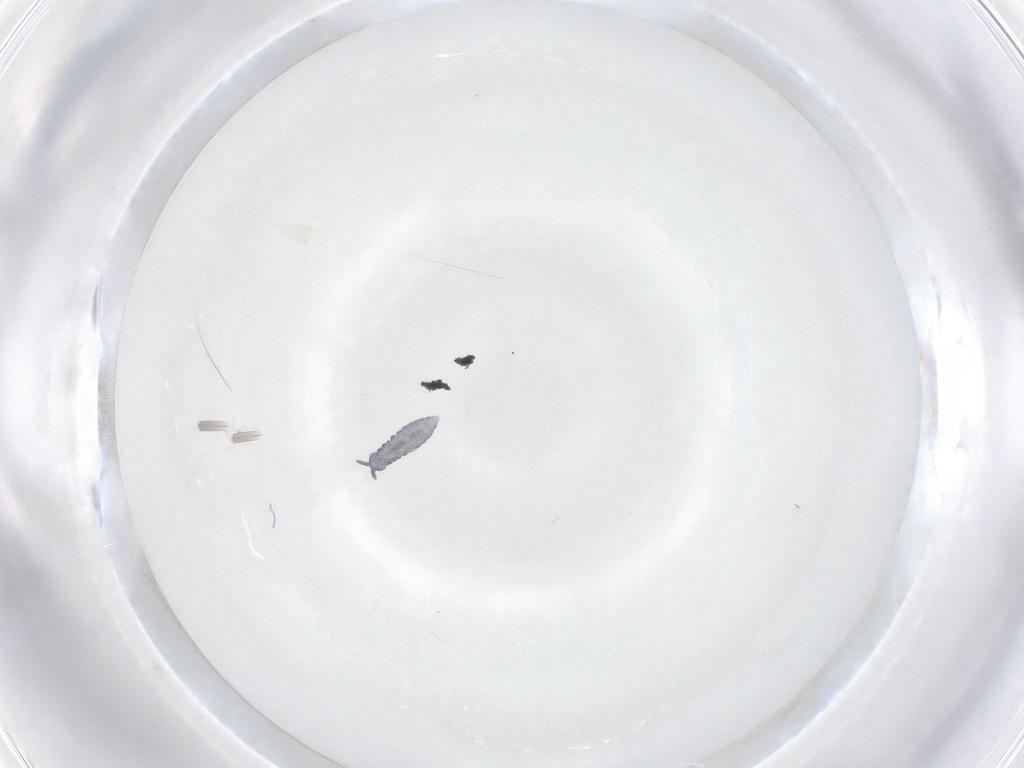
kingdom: Animalia
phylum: Arthropoda
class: Collembola
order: Poduromorpha
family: Hypogastruridae
